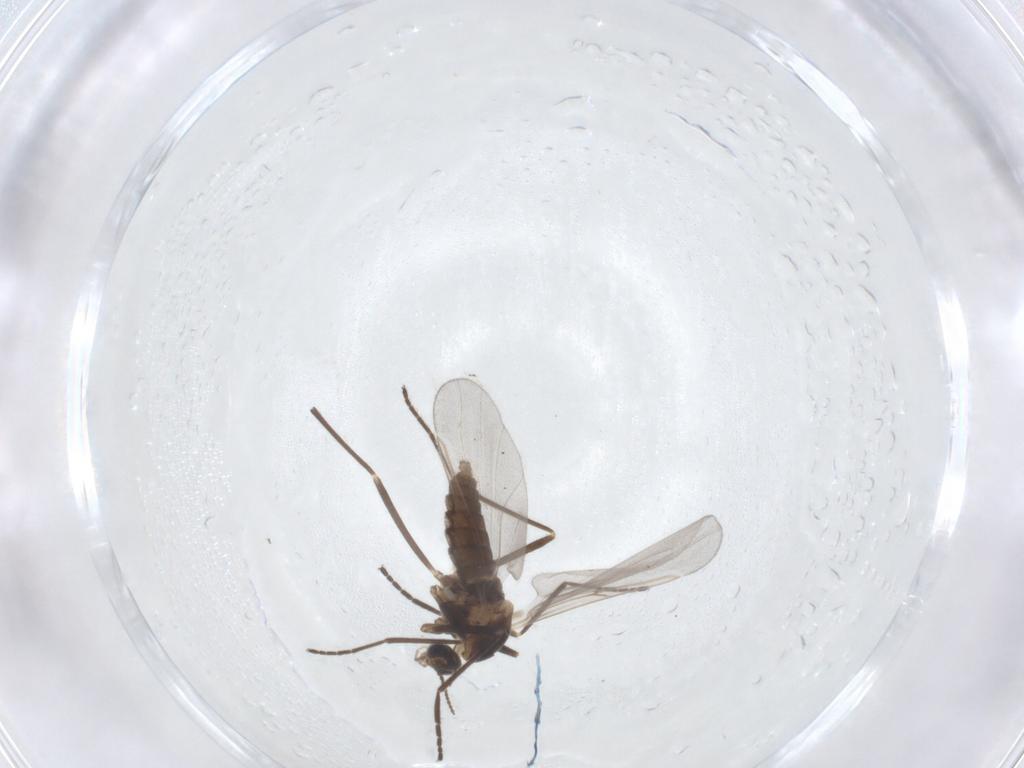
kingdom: Animalia
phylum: Arthropoda
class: Insecta
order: Diptera
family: Cecidomyiidae
